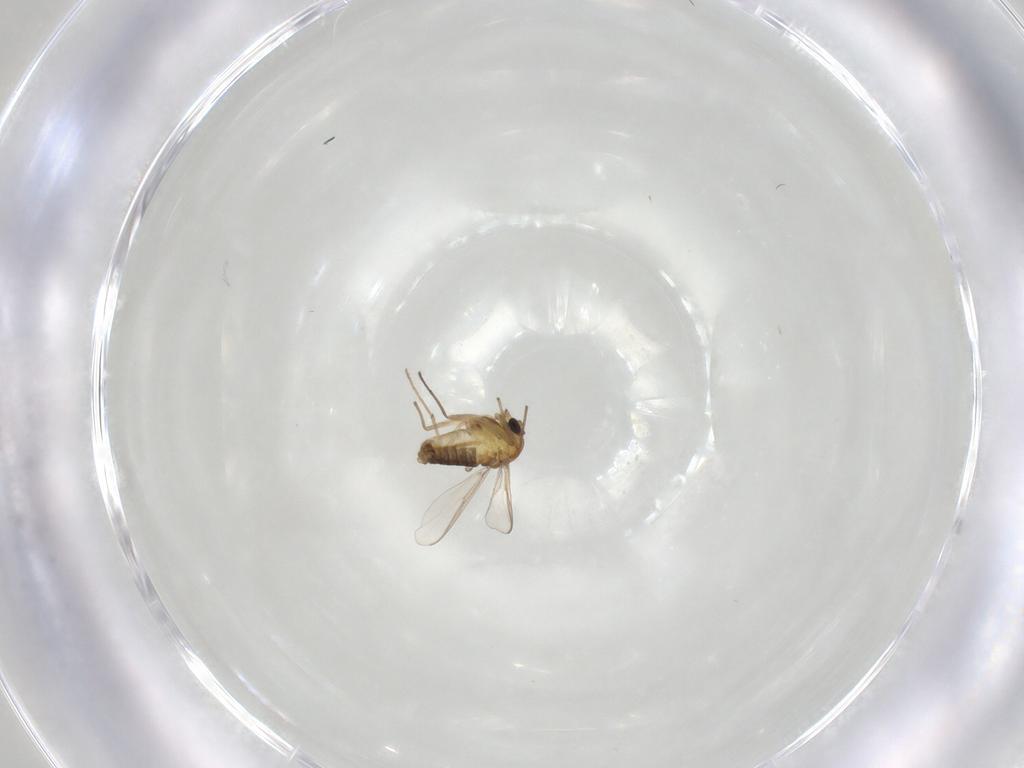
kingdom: Animalia
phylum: Arthropoda
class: Insecta
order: Diptera
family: Chironomidae
